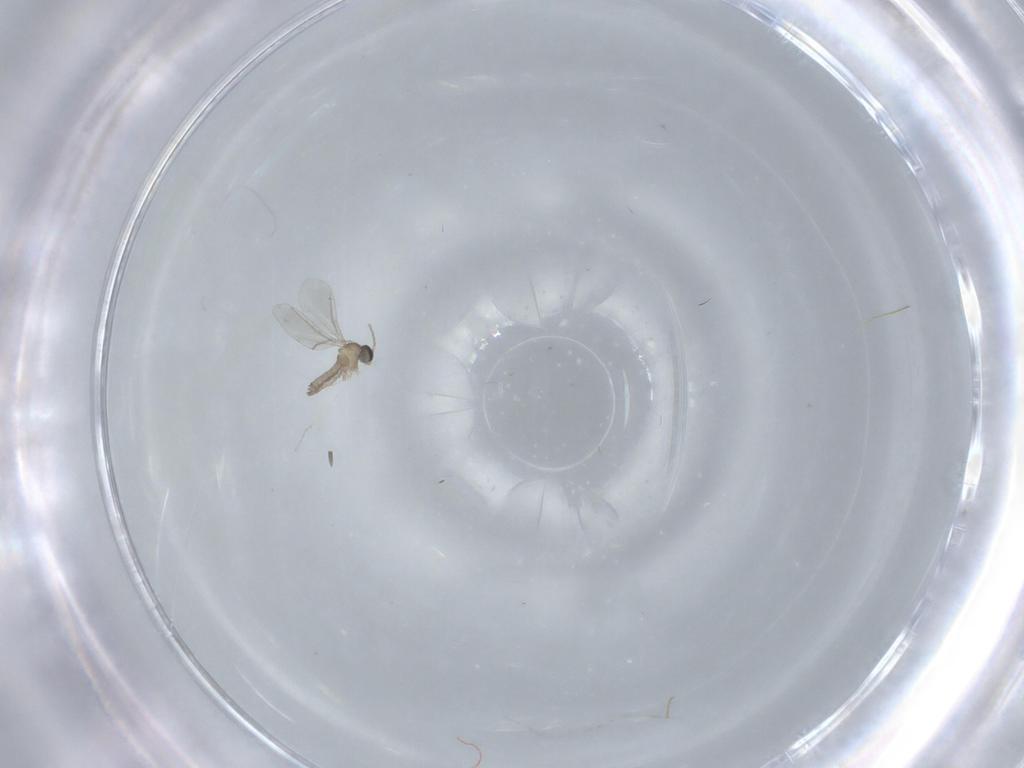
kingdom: Animalia
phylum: Arthropoda
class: Insecta
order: Diptera
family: Cecidomyiidae
